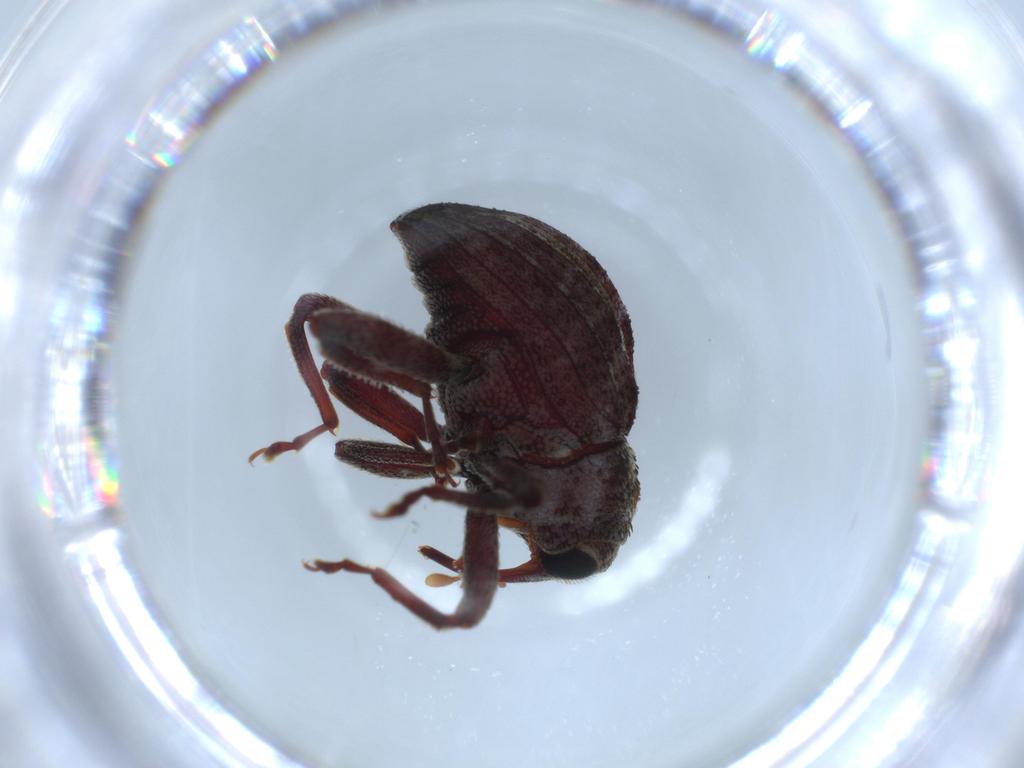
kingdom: Animalia
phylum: Arthropoda
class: Insecta
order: Coleoptera
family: Curculionidae
